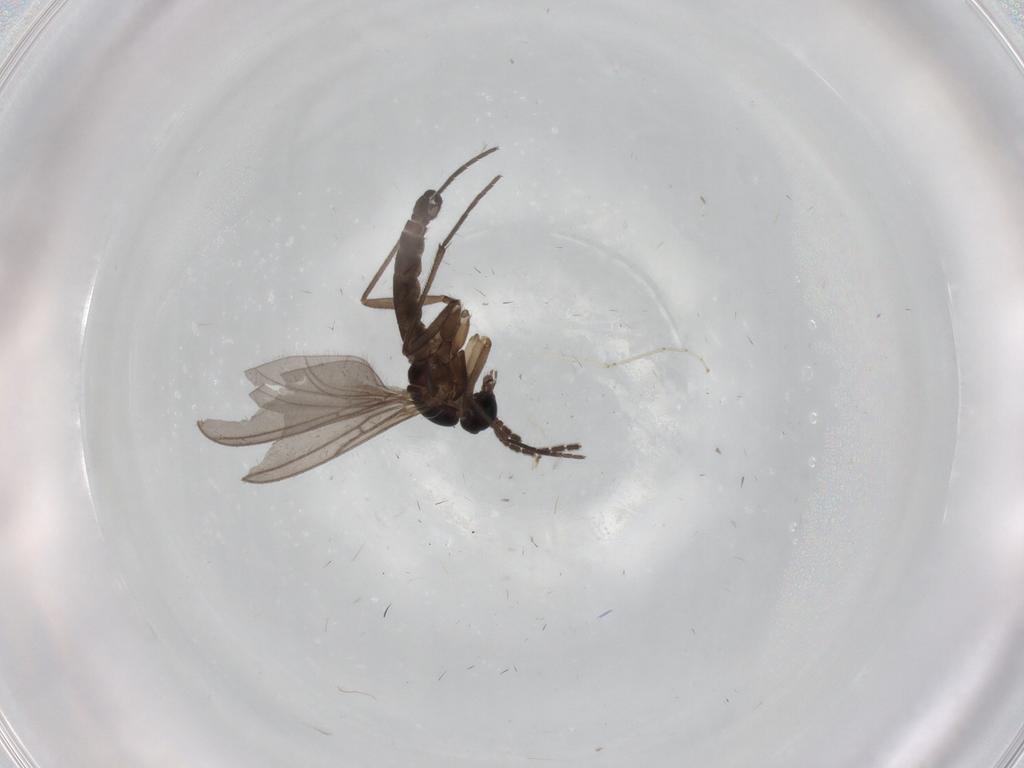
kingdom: Animalia
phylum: Arthropoda
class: Insecta
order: Diptera
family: Sciaridae
